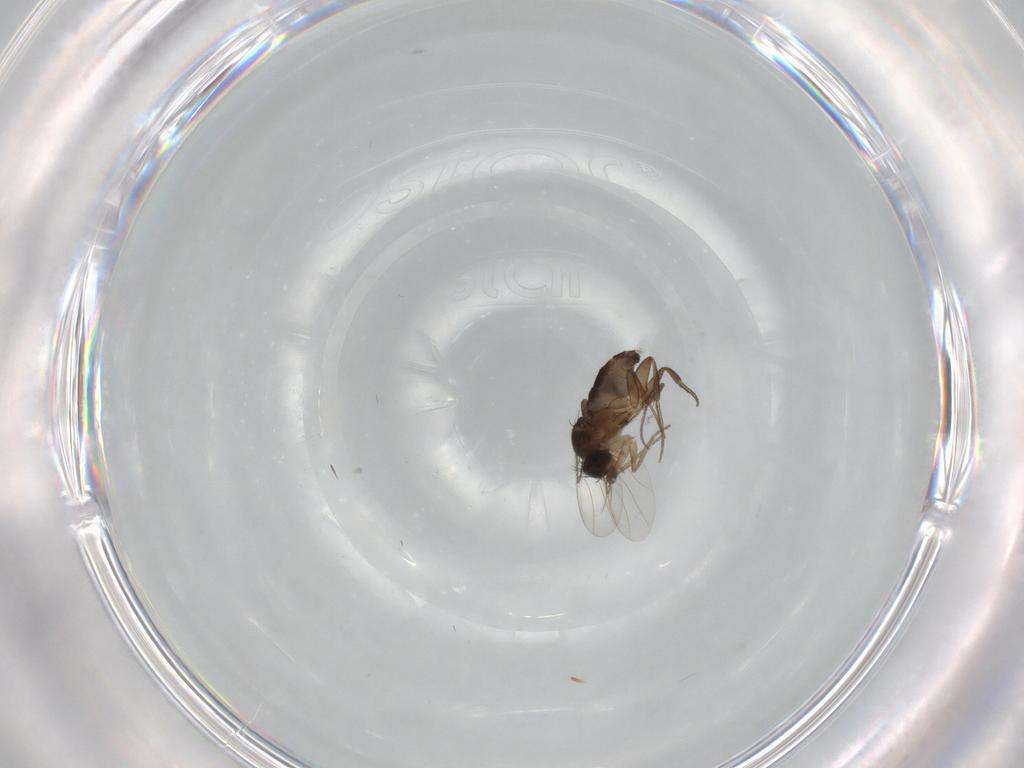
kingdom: Animalia
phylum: Arthropoda
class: Insecta
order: Diptera
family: Phoridae
